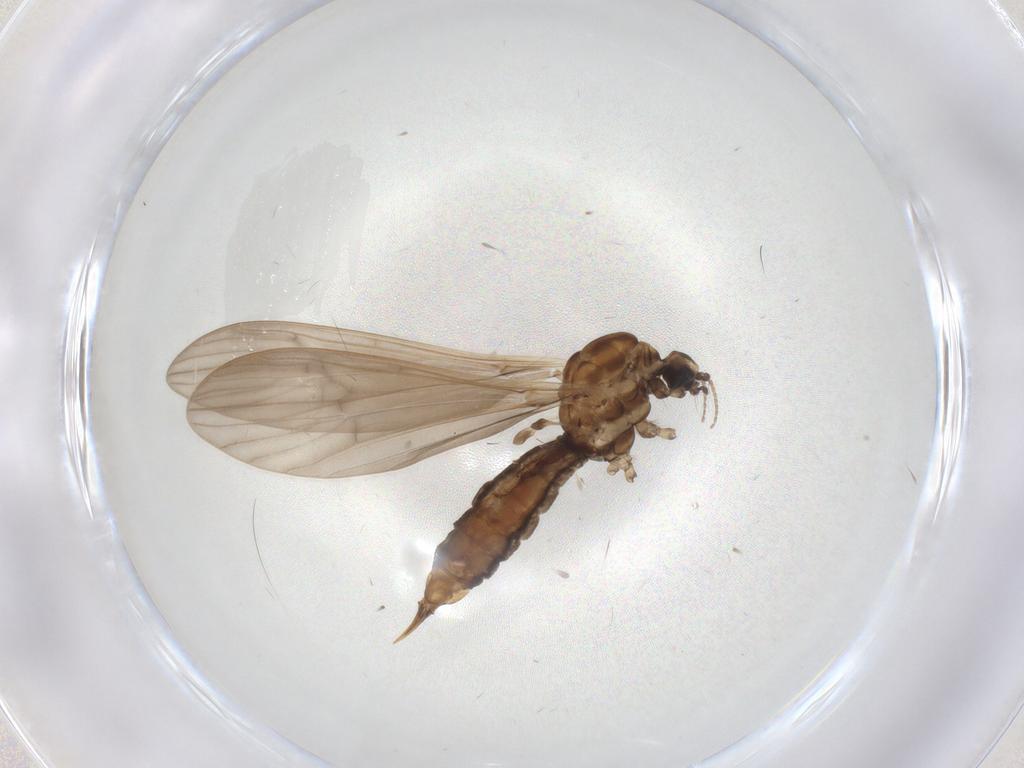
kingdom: Animalia
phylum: Arthropoda
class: Insecta
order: Diptera
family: Limoniidae
